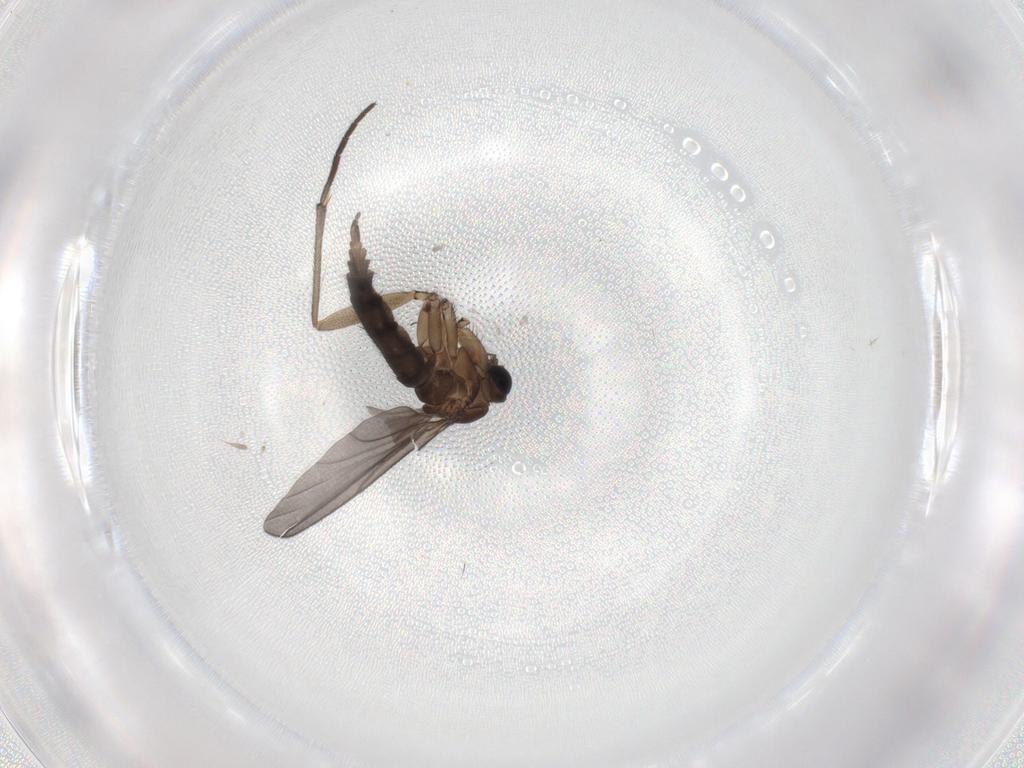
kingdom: Animalia
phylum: Arthropoda
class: Insecta
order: Diptera
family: Sciaridae
